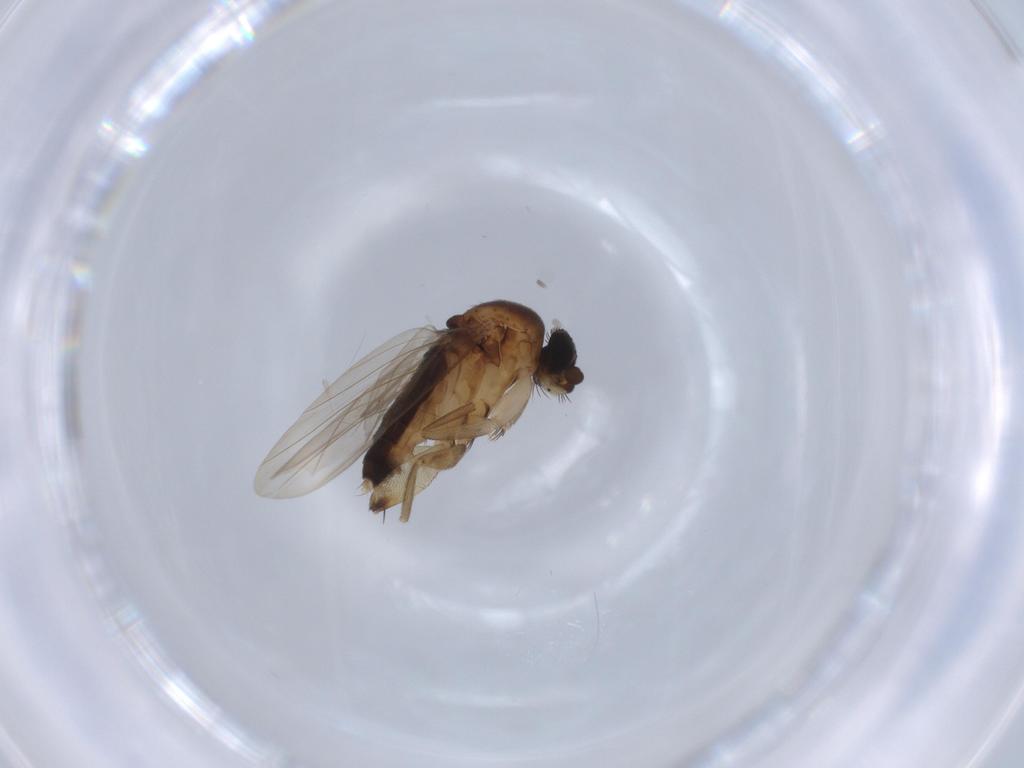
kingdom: Animalia
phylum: Arthropoda
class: Insecta
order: Diptera
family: Phoridae
